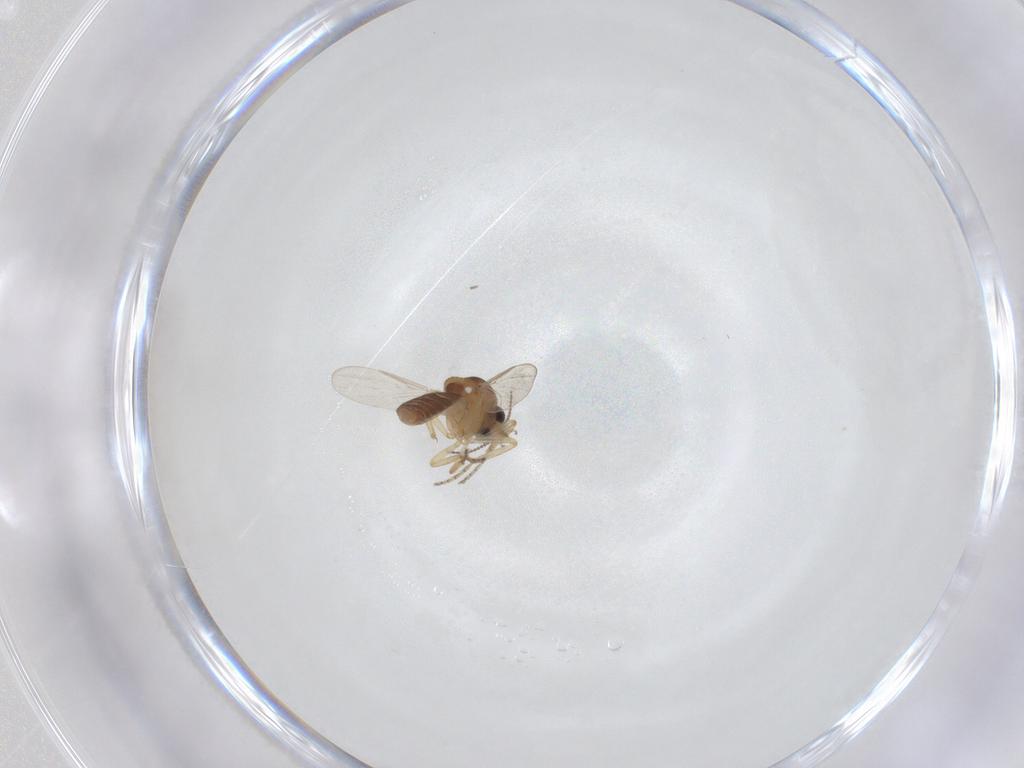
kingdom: Animalia
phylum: Arthropoda
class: Insecta
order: Diptera
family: Ceratopogonidae
